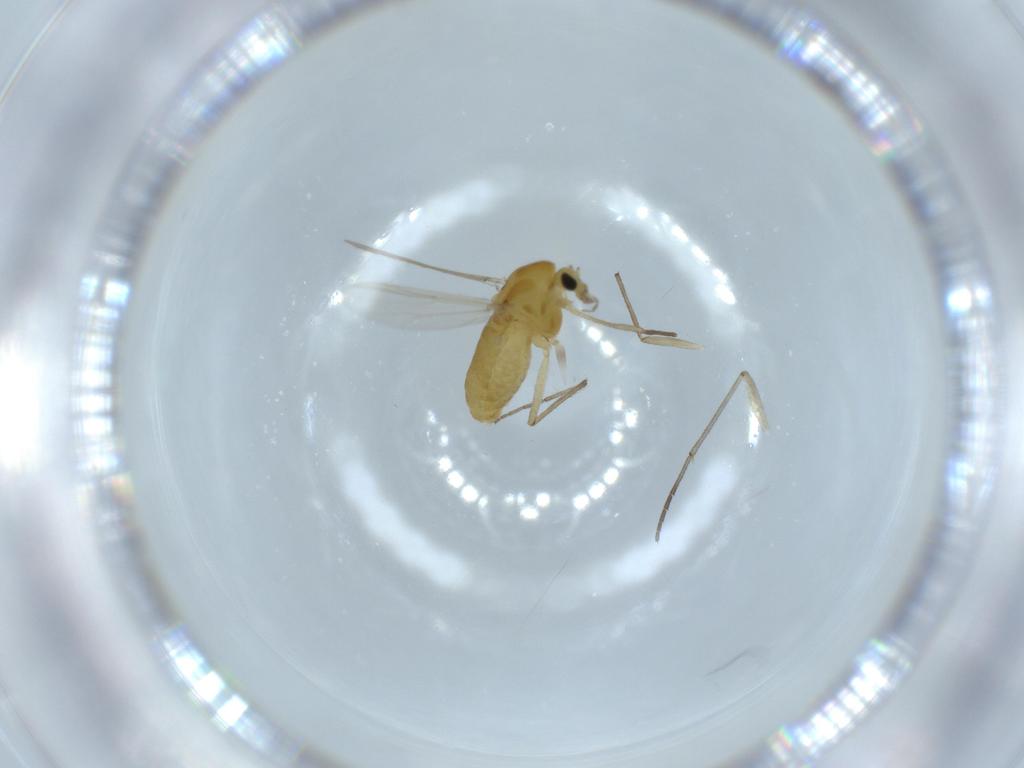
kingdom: Animalia
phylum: Arthropoda
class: Insecta
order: Diptera
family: Chironomidae
